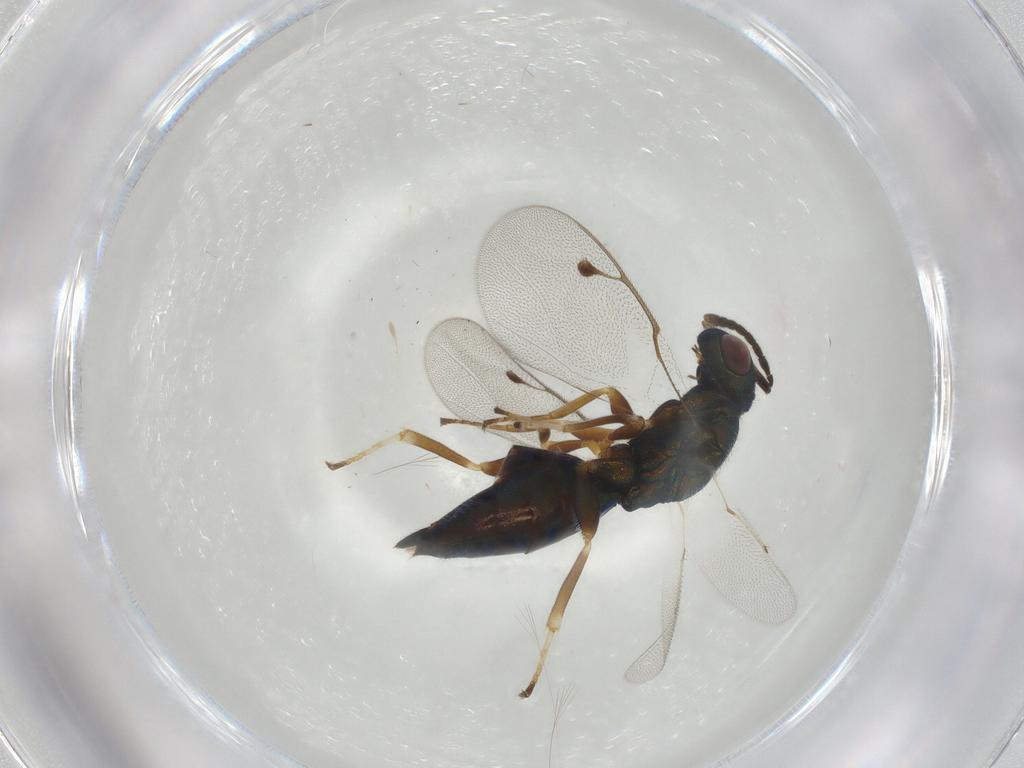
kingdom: Animalia
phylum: Arthropoda
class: Insecta
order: Hymenoptera
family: Pteromalidae
